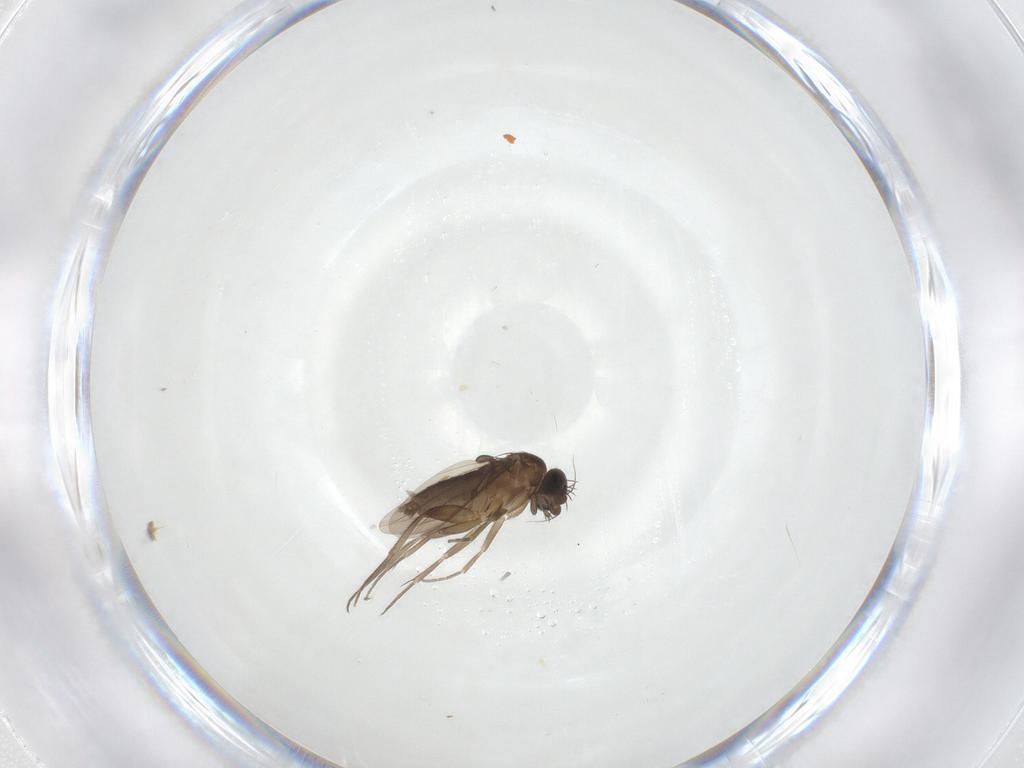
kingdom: Animalia
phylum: Arthropoda
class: Insecta
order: Diptera
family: Phoridae
